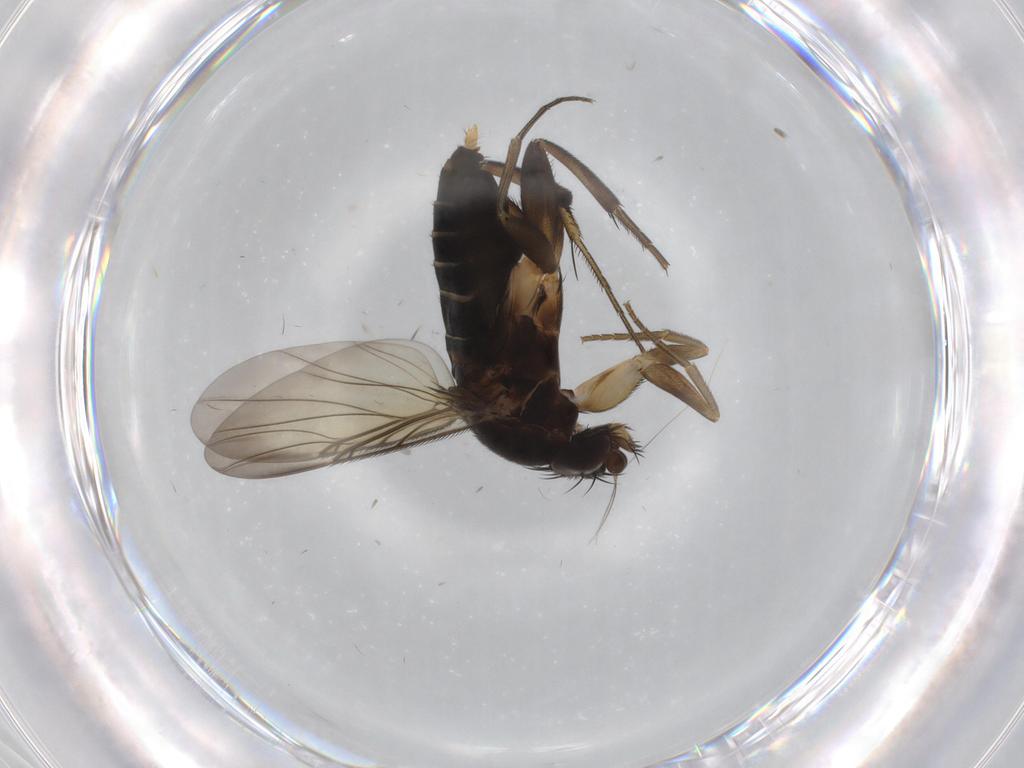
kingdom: Animalia
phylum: Arthropoda
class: Insecta
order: Diptera
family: Phoridae
